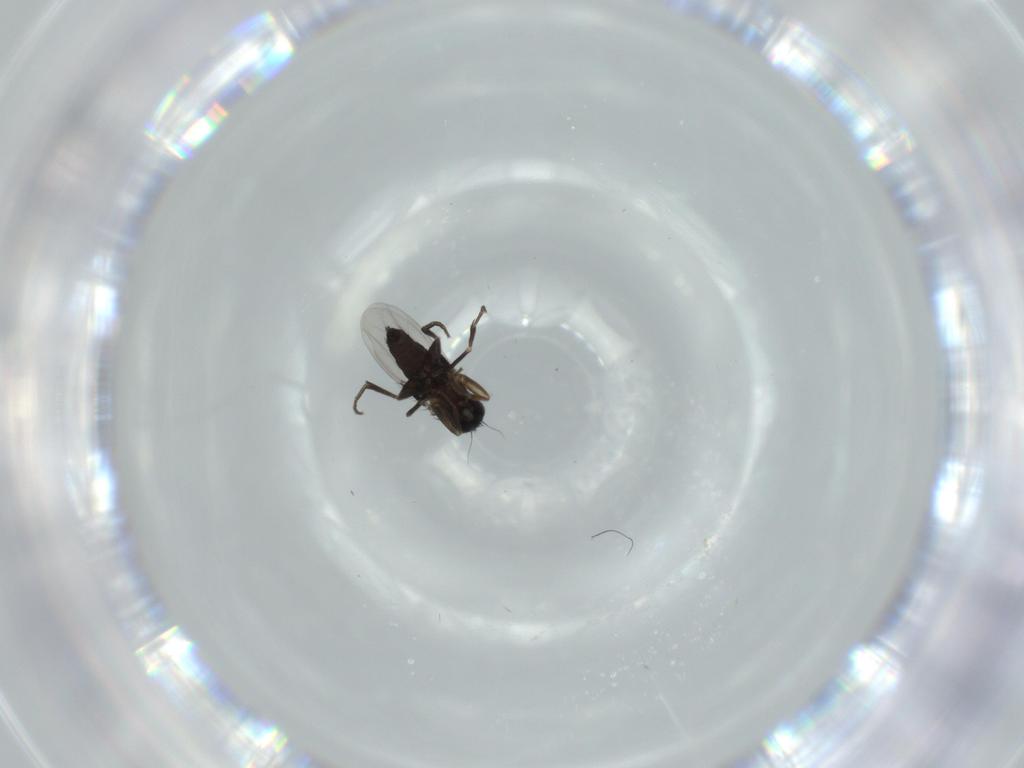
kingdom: Animalia
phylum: Arthropoda
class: Insecta
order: Diptera
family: Phoridae
